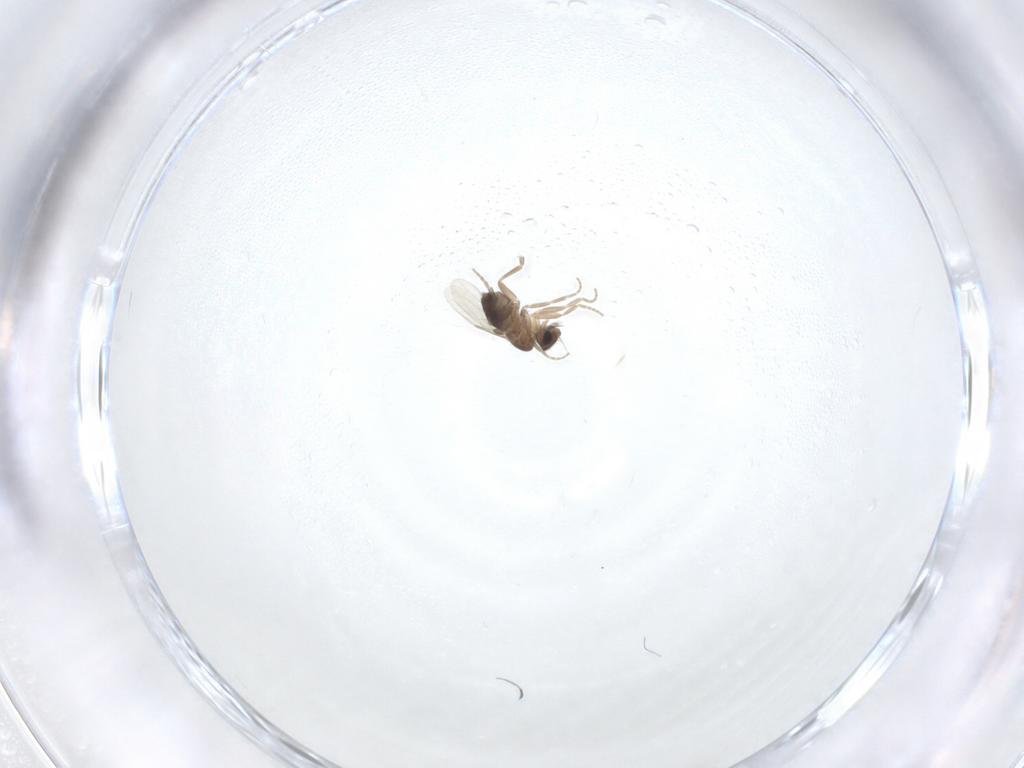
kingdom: Animalia
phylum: Arthropoda
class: Insecta
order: Diptera
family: Phoridae
